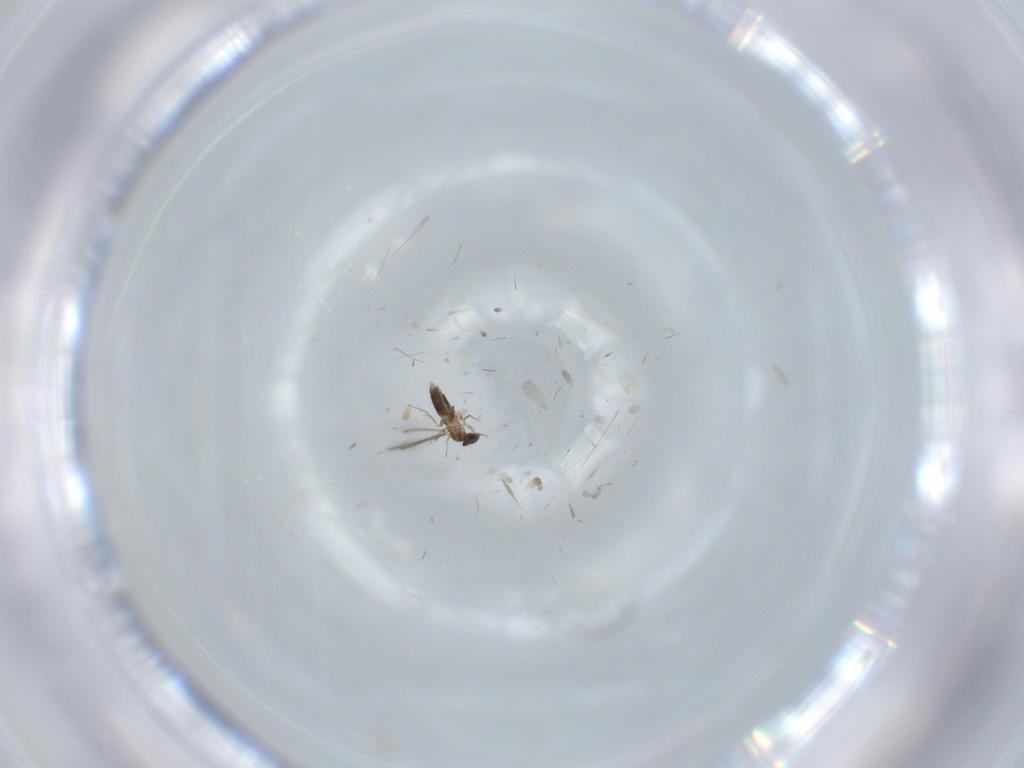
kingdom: Animalia
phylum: Arthropoda
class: Insecta
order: Hymenoptera
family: Mymaridae
